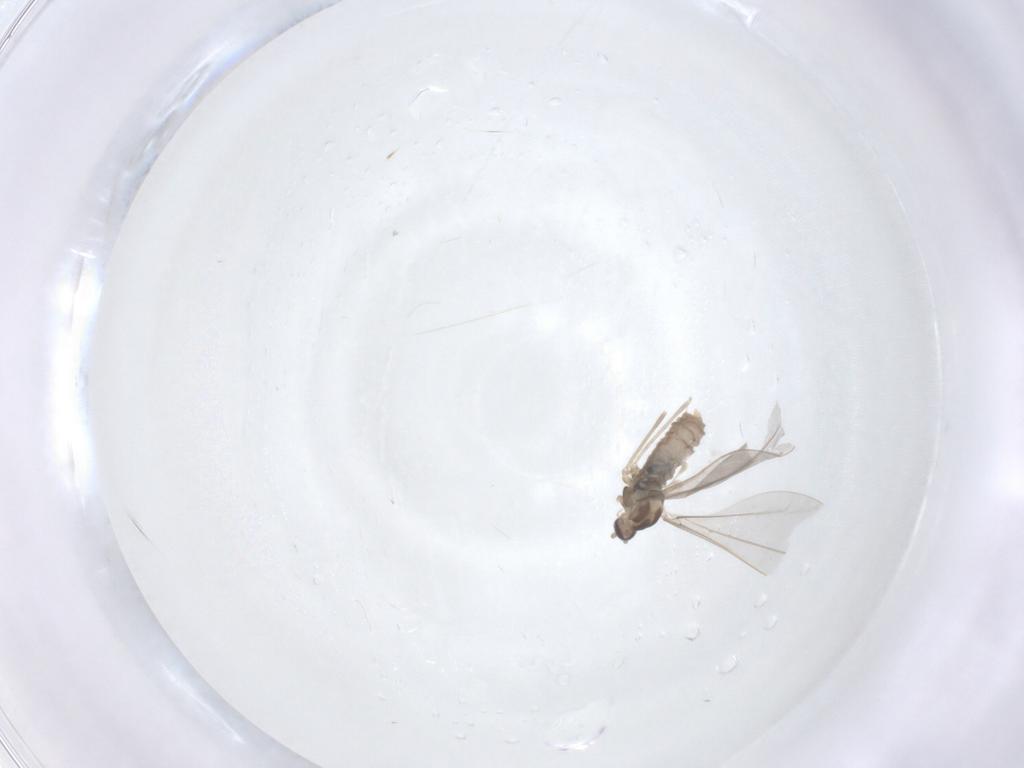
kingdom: Animalia
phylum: Arthropoda
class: Insecta
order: Diptera
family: Cecidomyiidae
